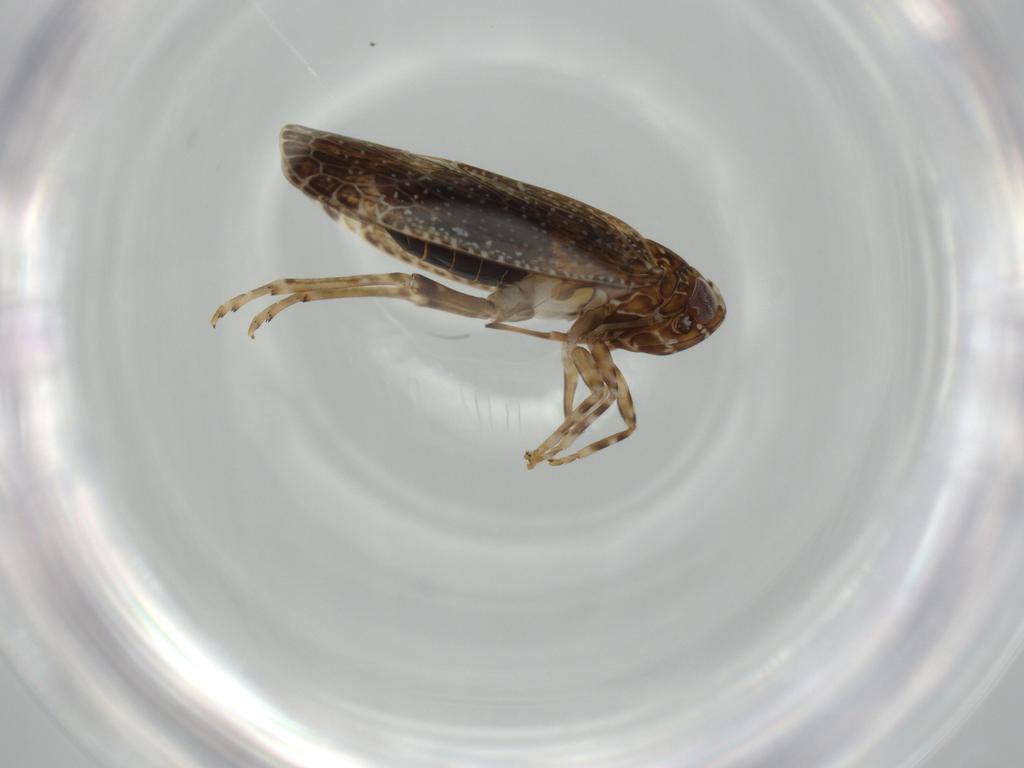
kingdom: Animalia
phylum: Arthropoda
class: Insecta
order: Hemiptera
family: Achilidae
